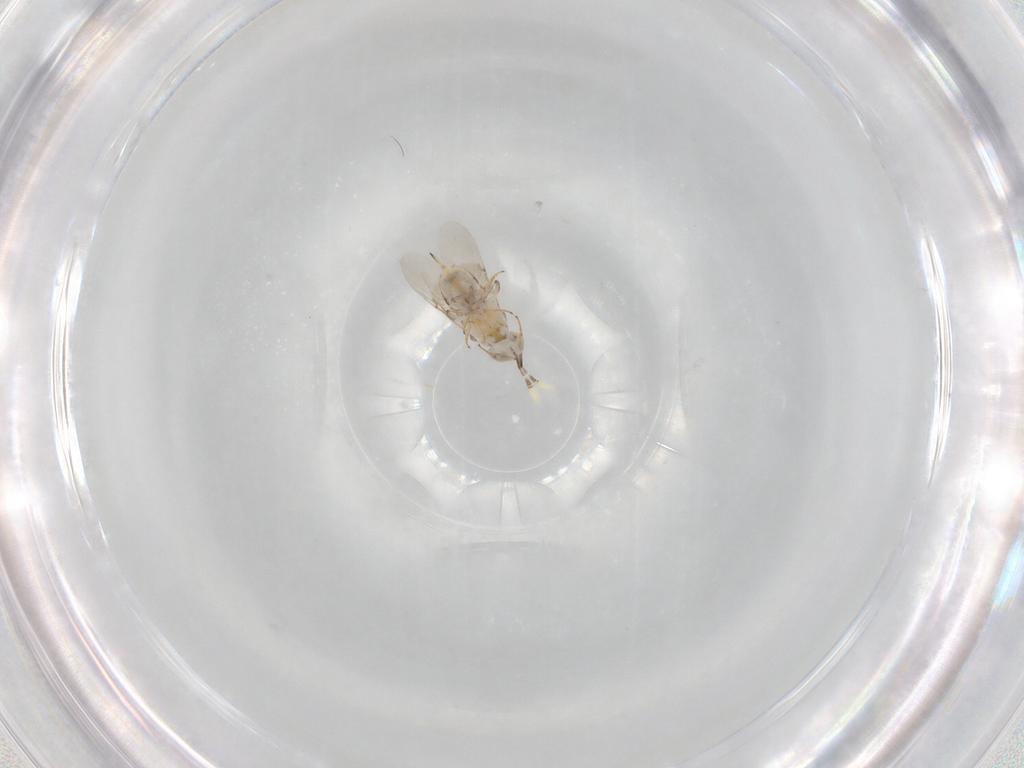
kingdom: Animalia
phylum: Arthropoda
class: Insecta
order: Hymenoptera
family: Encyrtidae
